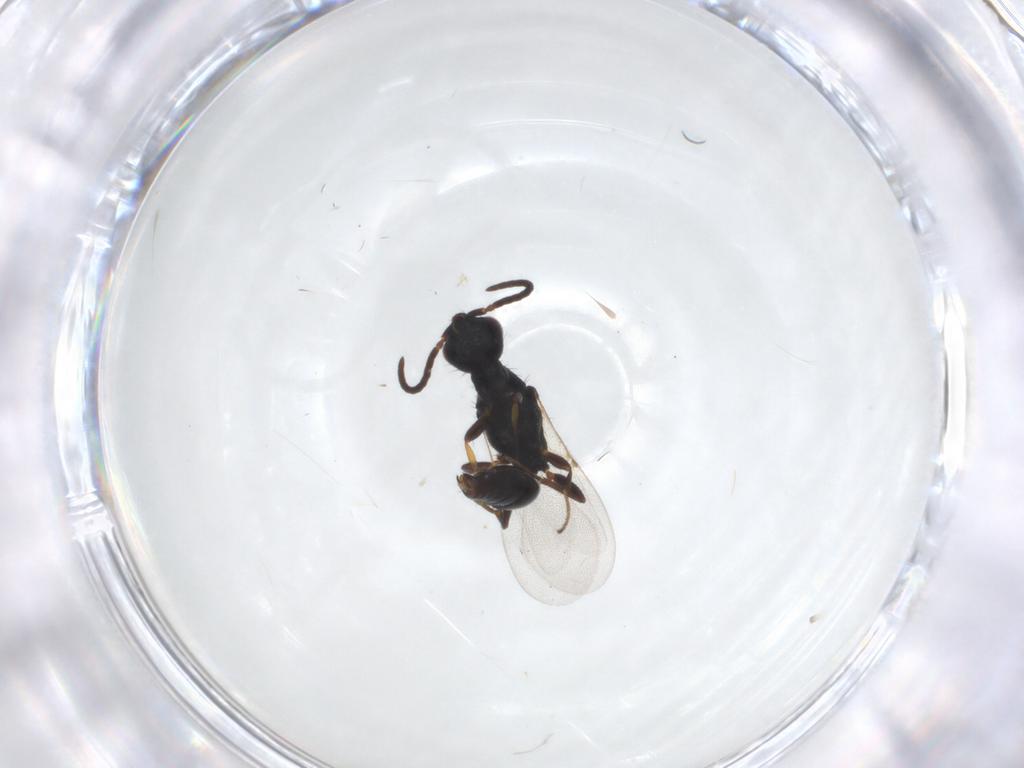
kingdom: Animalia
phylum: Arthropoda
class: Insecta
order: Hymenoptera
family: Bethylidae
